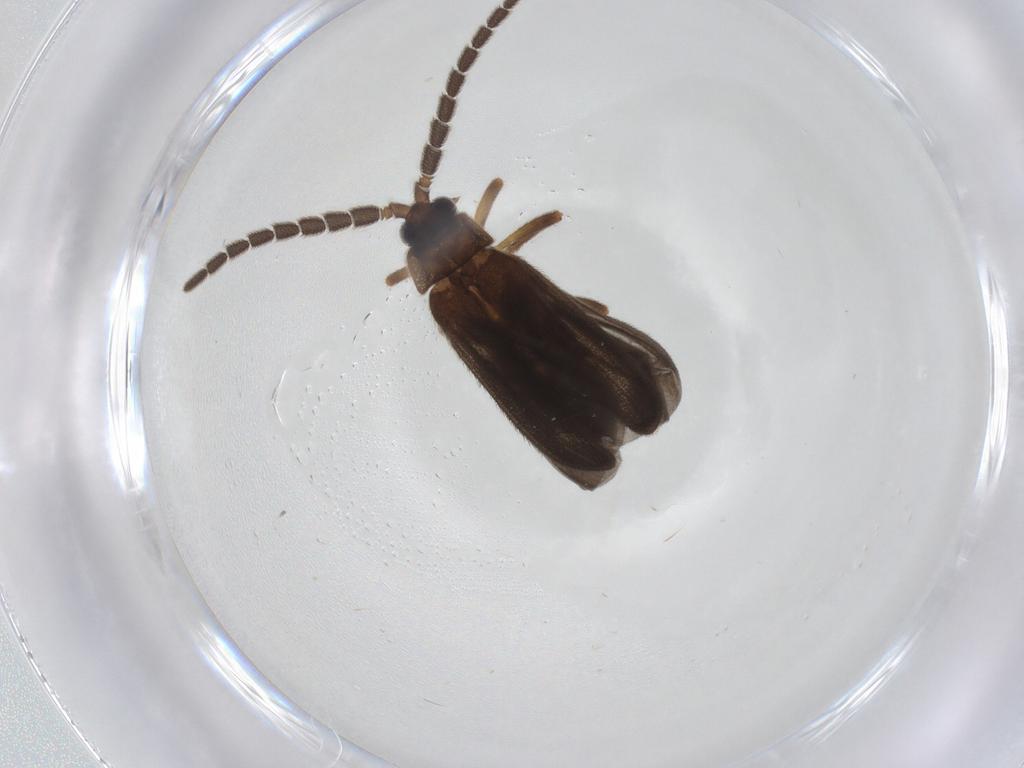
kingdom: Animalia
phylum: Arthropoda
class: Insecta
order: Coleoptera
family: Lycidae
